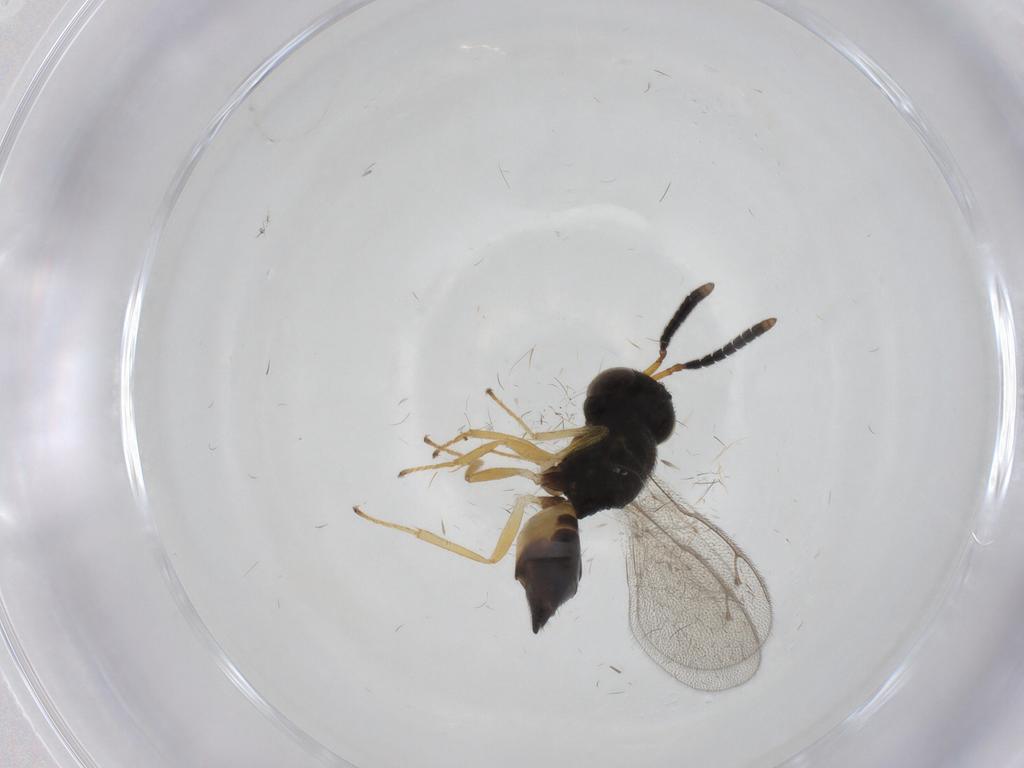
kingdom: Animalia
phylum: Arthropoda
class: Insecta
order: Hymenoptera
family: Pteromalidae
